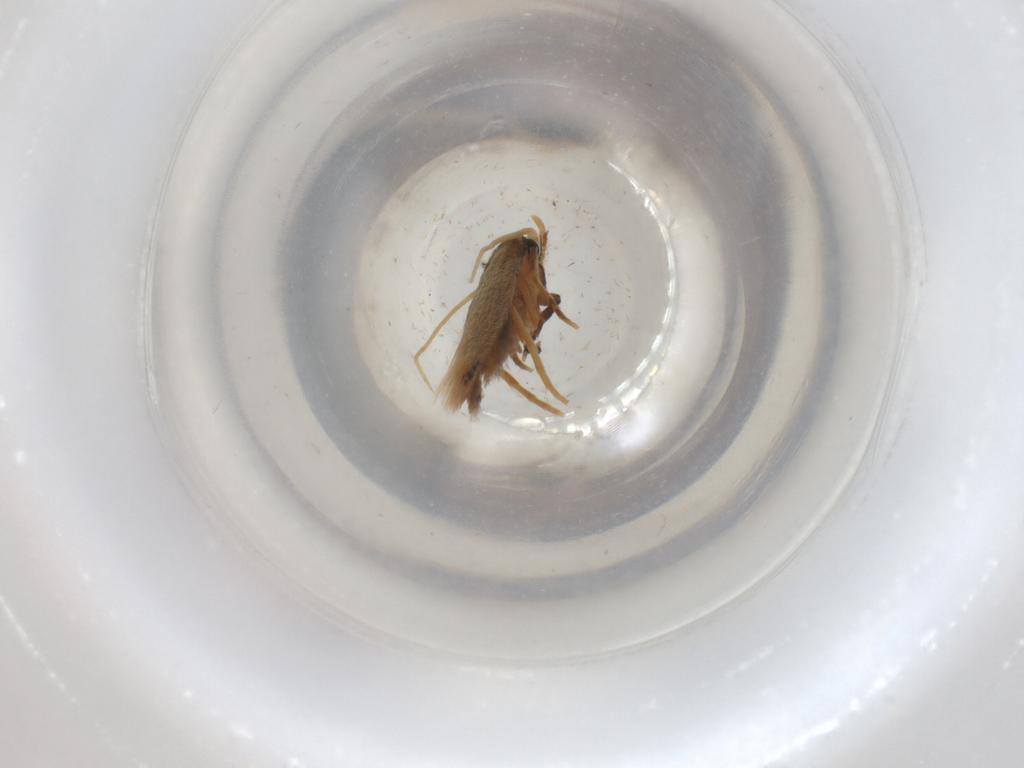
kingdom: Animalia
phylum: Arthropoda
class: Insecta
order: Lepidoptera
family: Tineidae
